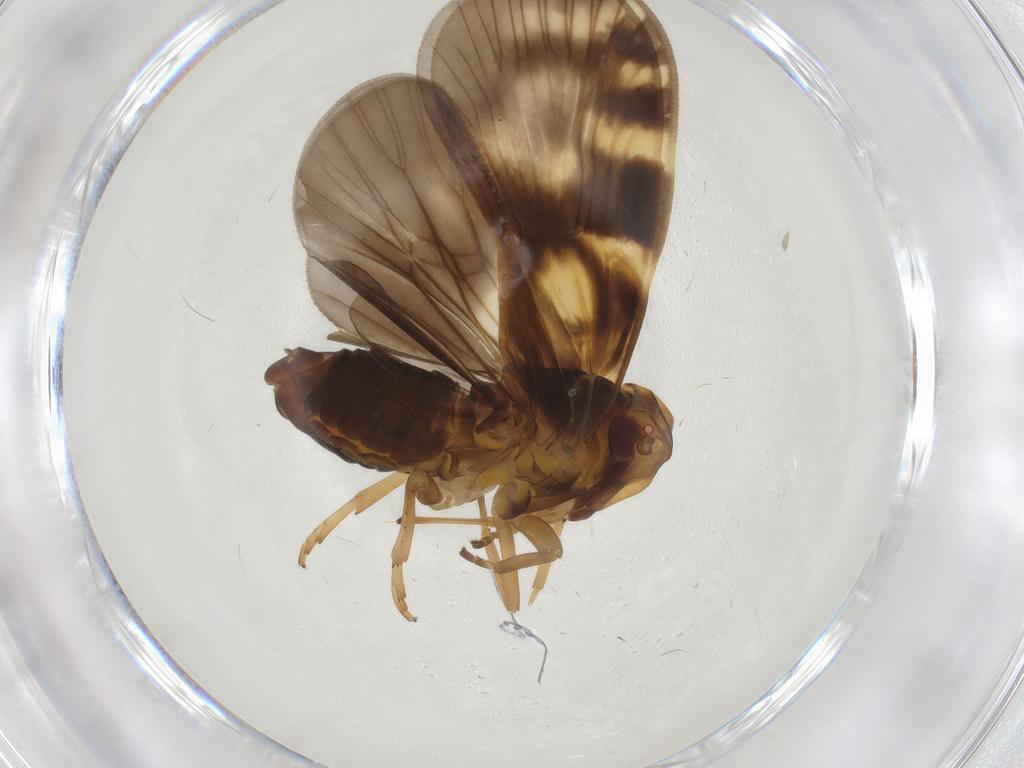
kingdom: Animalia
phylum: Arthropoda
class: Insecta
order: Hemiptera
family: Cixiidae
